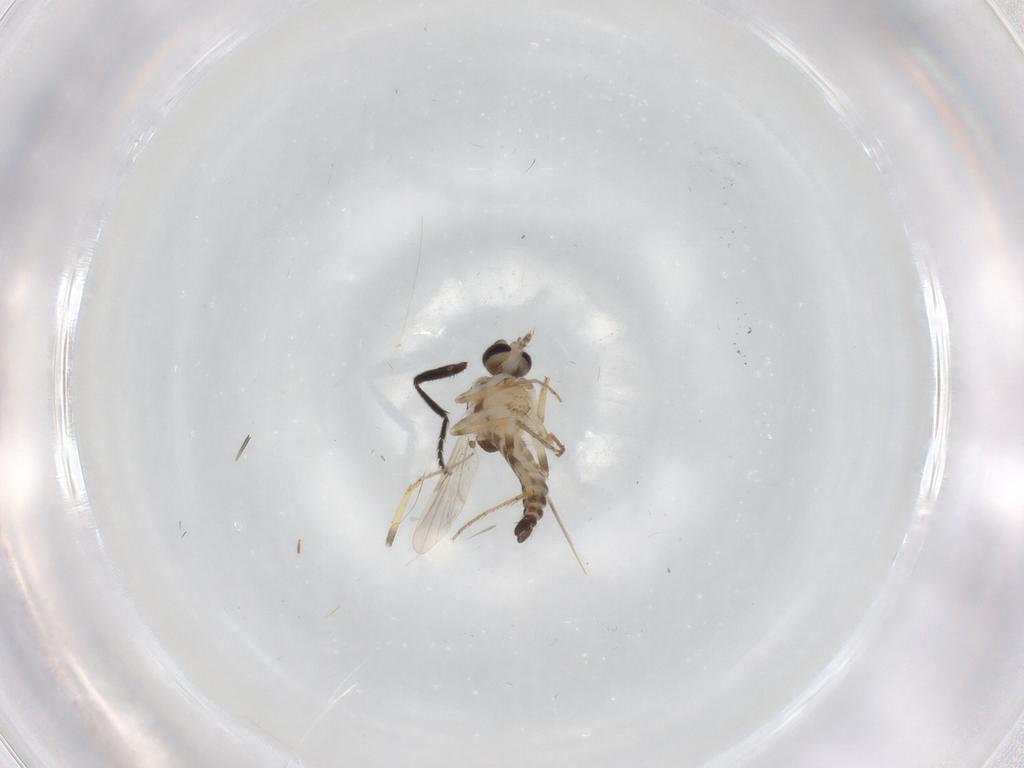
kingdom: Animalia
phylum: Arthropoda
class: Insecta
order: Diptera
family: Milichiidae
